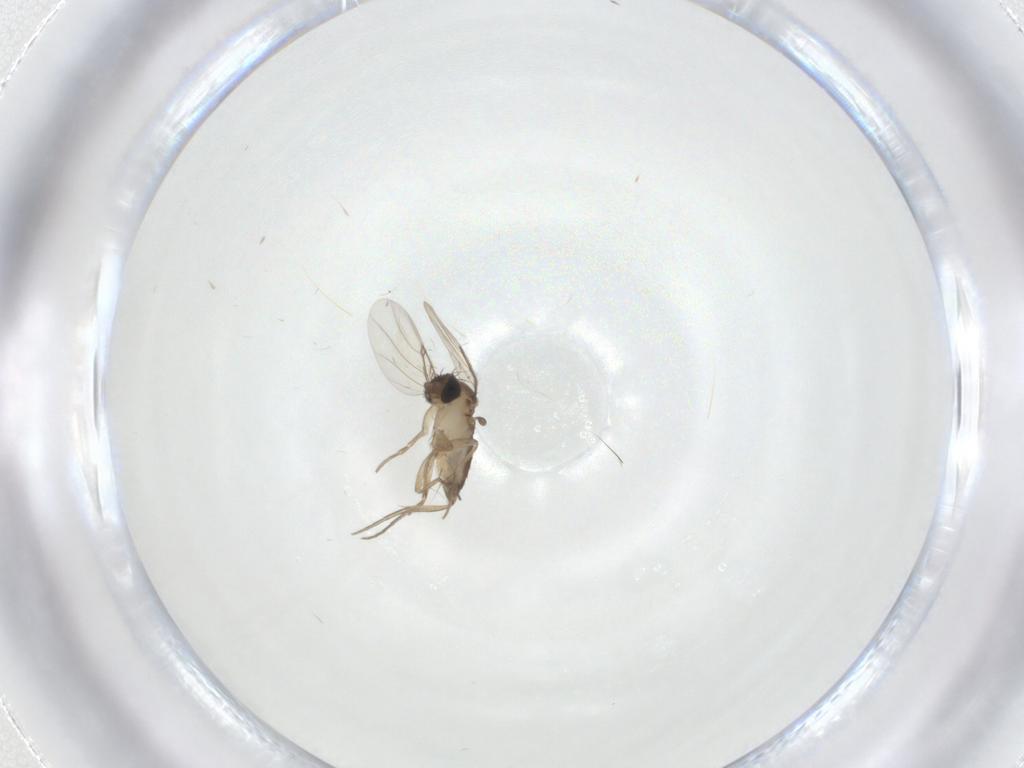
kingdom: Animalia
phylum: Arthropoda
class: Insecta
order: Diptera
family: Phoridae
